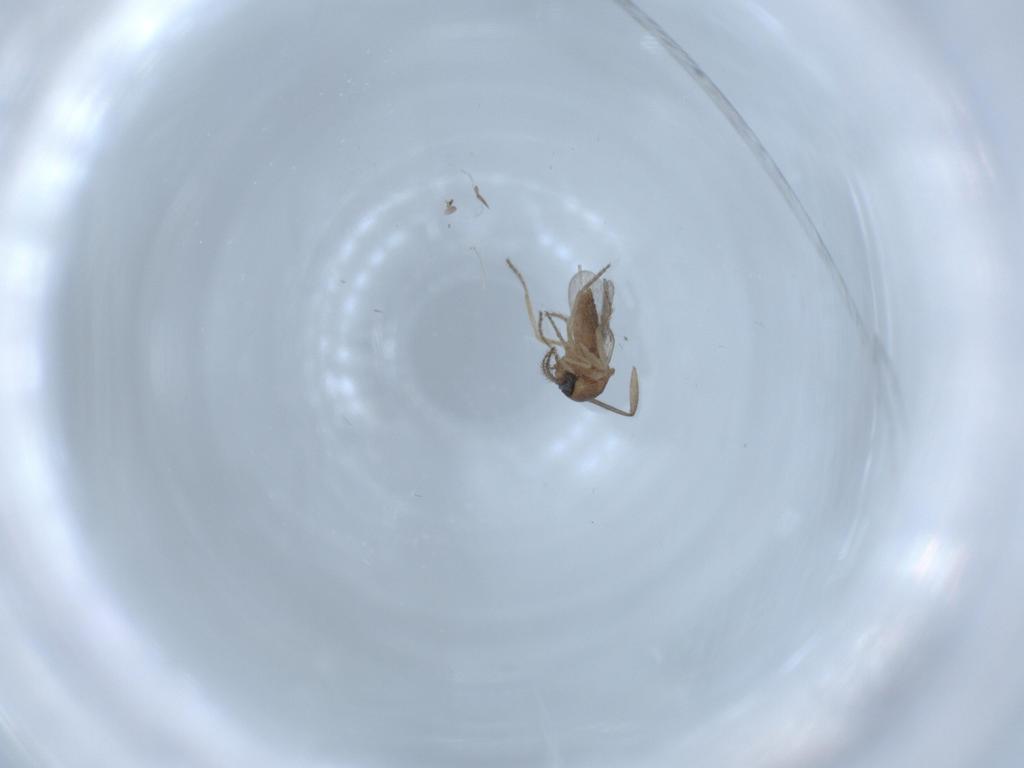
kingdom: Animalia
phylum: Arthropoda
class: Insecta
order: Diptera
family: Ceratopogonidae
